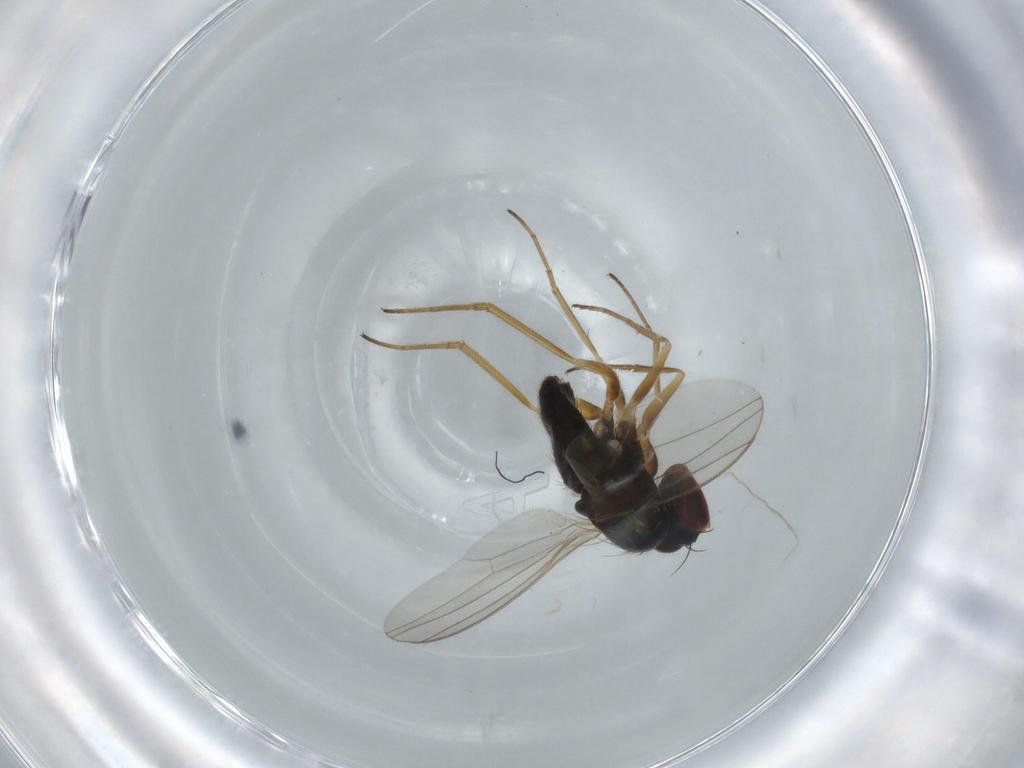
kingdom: Animalia
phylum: Arthropoda
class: Insecta
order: Diptera
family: Dolichopodidae
